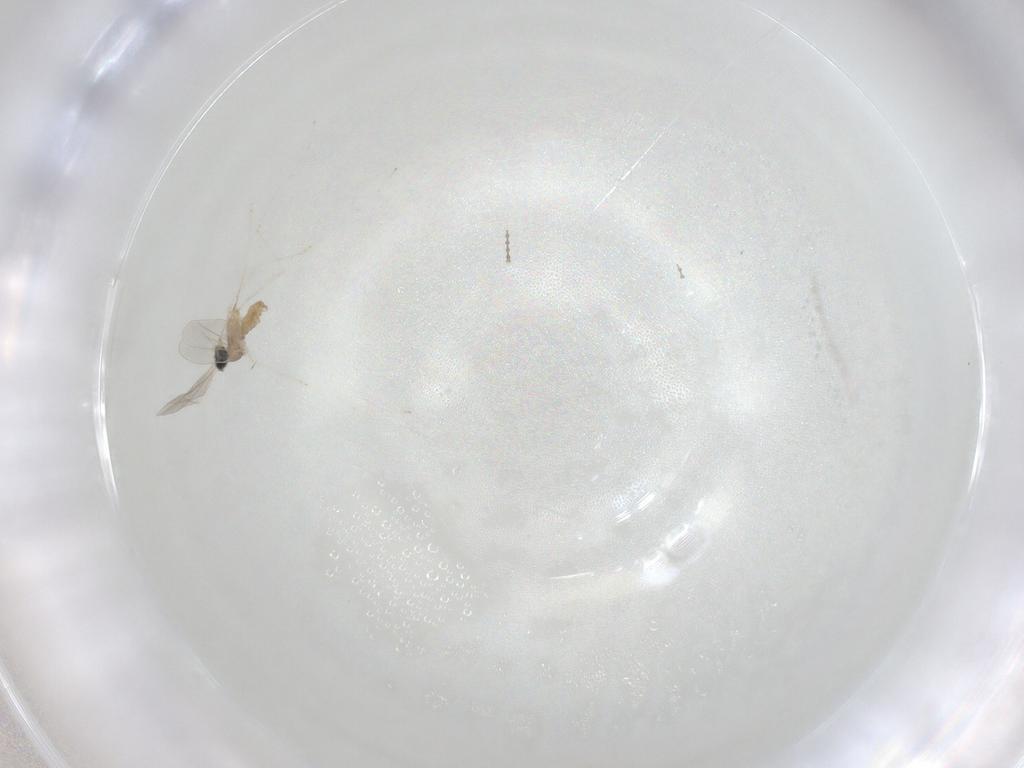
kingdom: Animalia
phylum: Arthropoda
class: Insecta
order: Diptera
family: Cecidomyiidae
